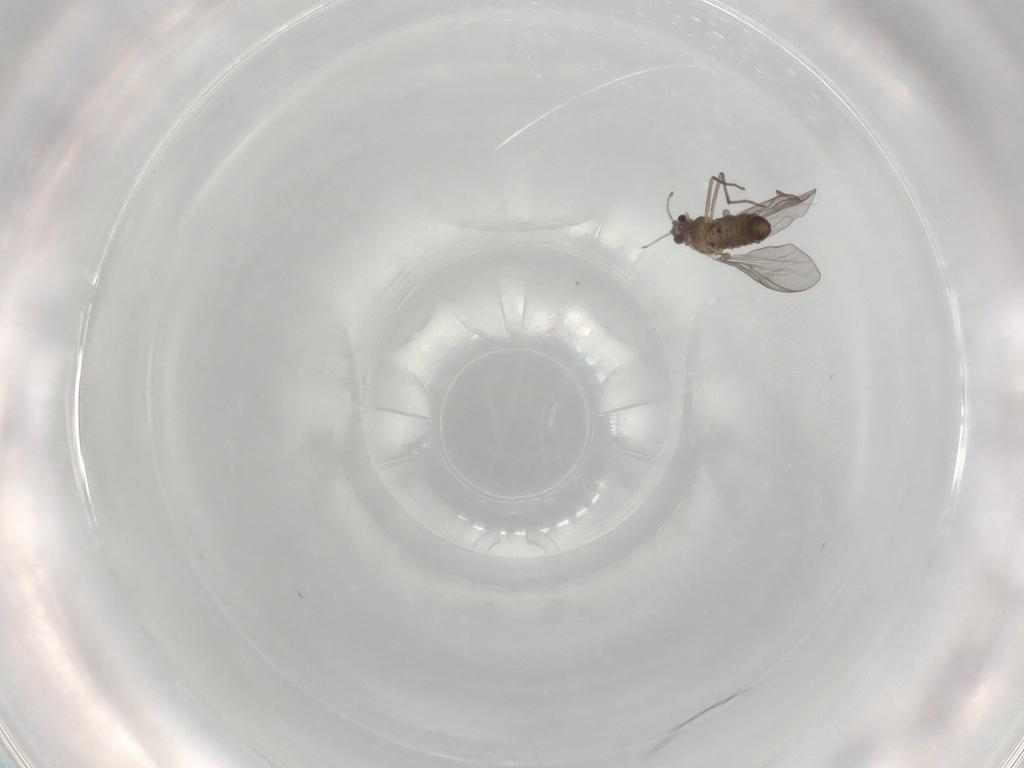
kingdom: Animalia
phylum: Arthropoda
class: Insecta
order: Diptera
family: Chironomidae
